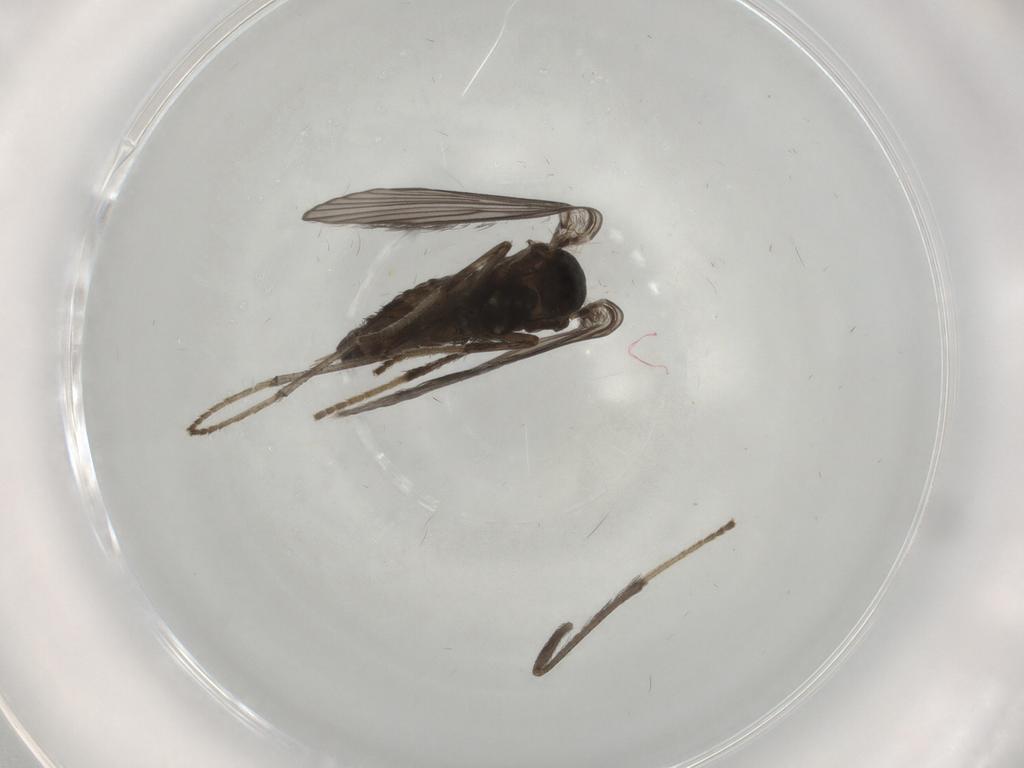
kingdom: Animalia
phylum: Arthropoda
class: Insecta
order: Diptera
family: Psychodidae
